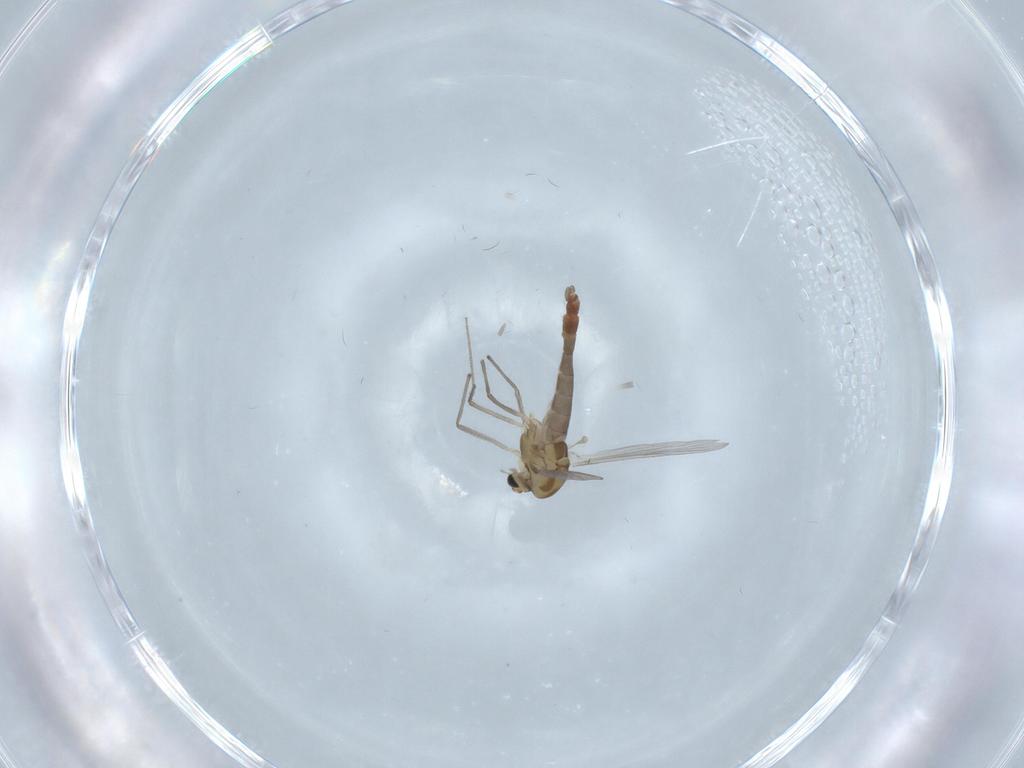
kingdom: Animalia
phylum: Arthropoda
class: Insecta
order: Diptera
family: Chironomidae
